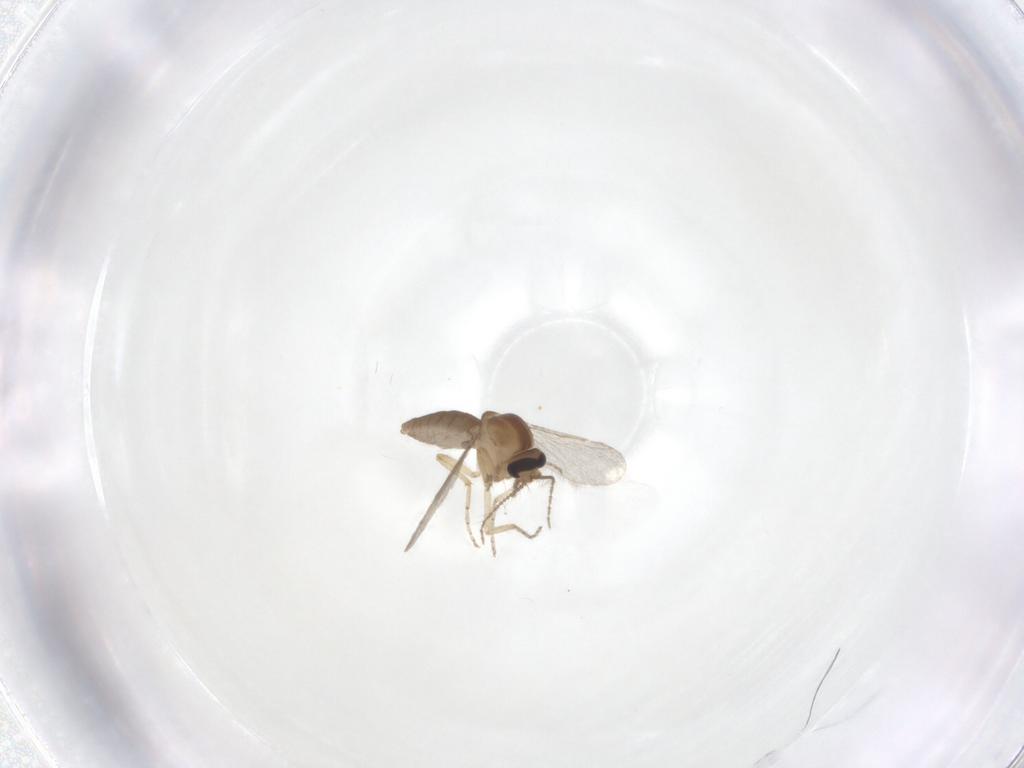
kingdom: Animalia
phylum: Arthropoda
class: Insecta
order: Diptera
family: Ceratopogonidae
